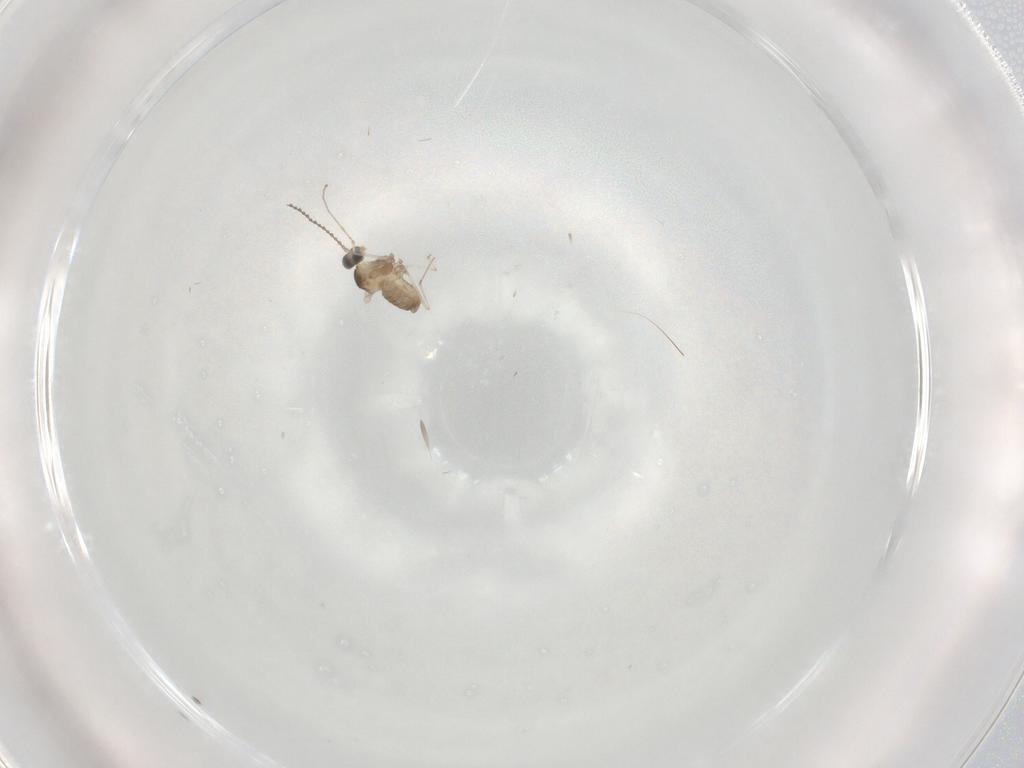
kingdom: Animalia
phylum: Arthropoda
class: Insecta
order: Diptera
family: Cecidomyiidae
